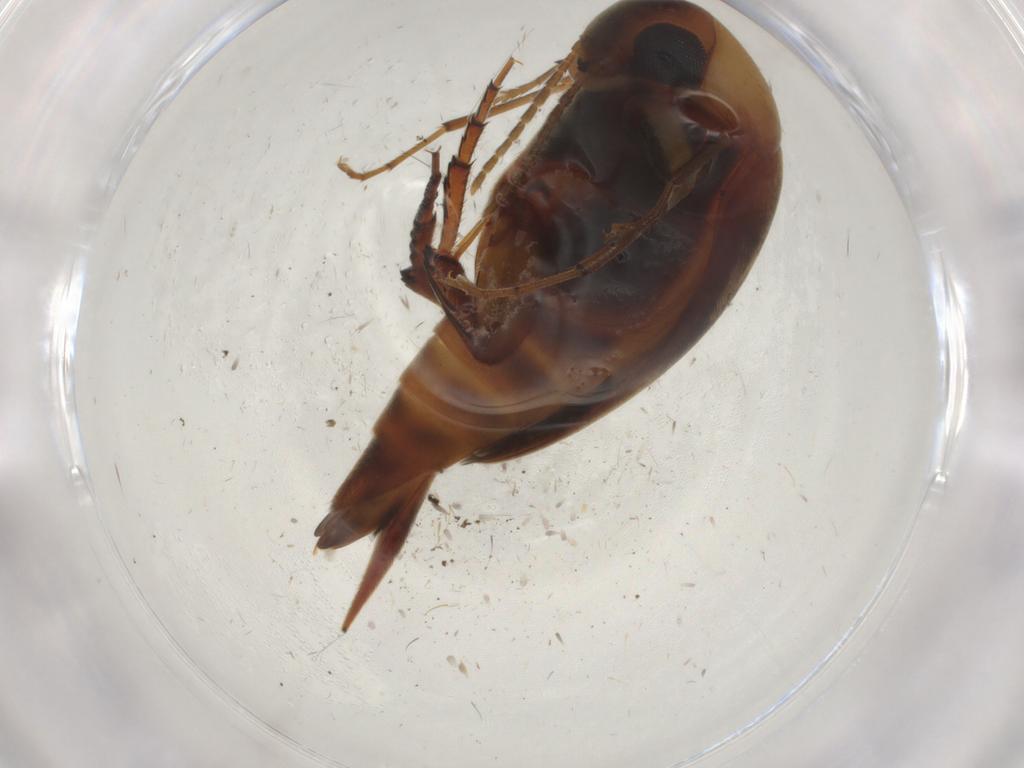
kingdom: Animalia
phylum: Arthropoda
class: Insecta
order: Coleoptera
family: Mordellidae
